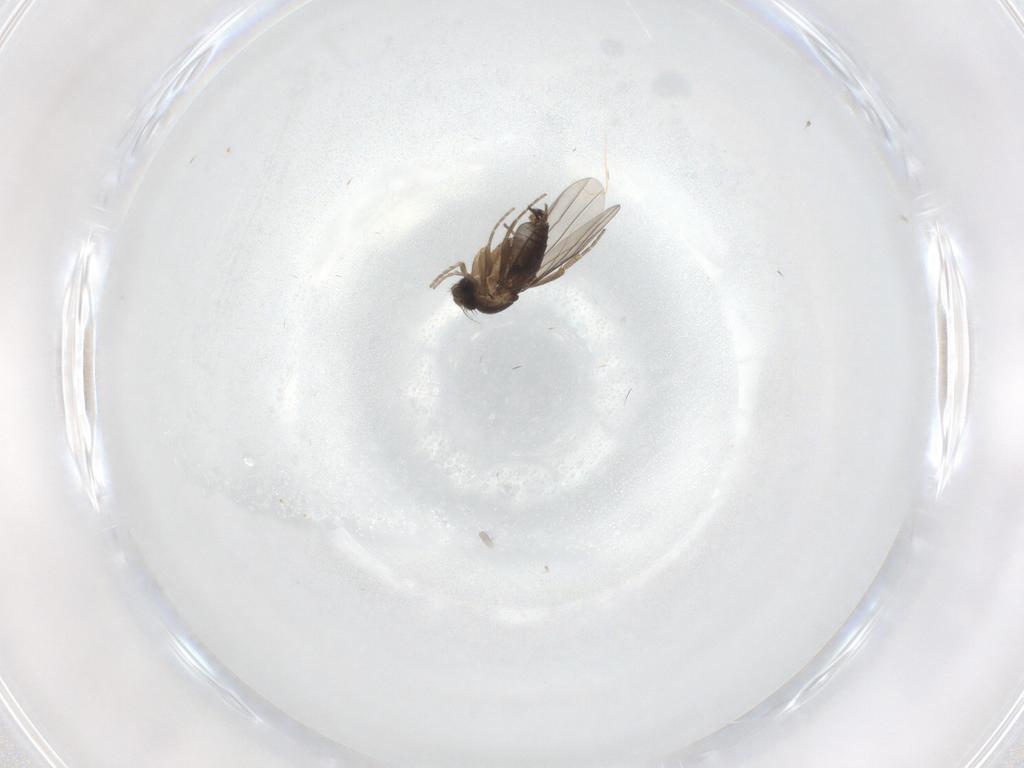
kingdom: Animalia
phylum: Arthropoda
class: Insecta
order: Diptera
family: Phoridae
